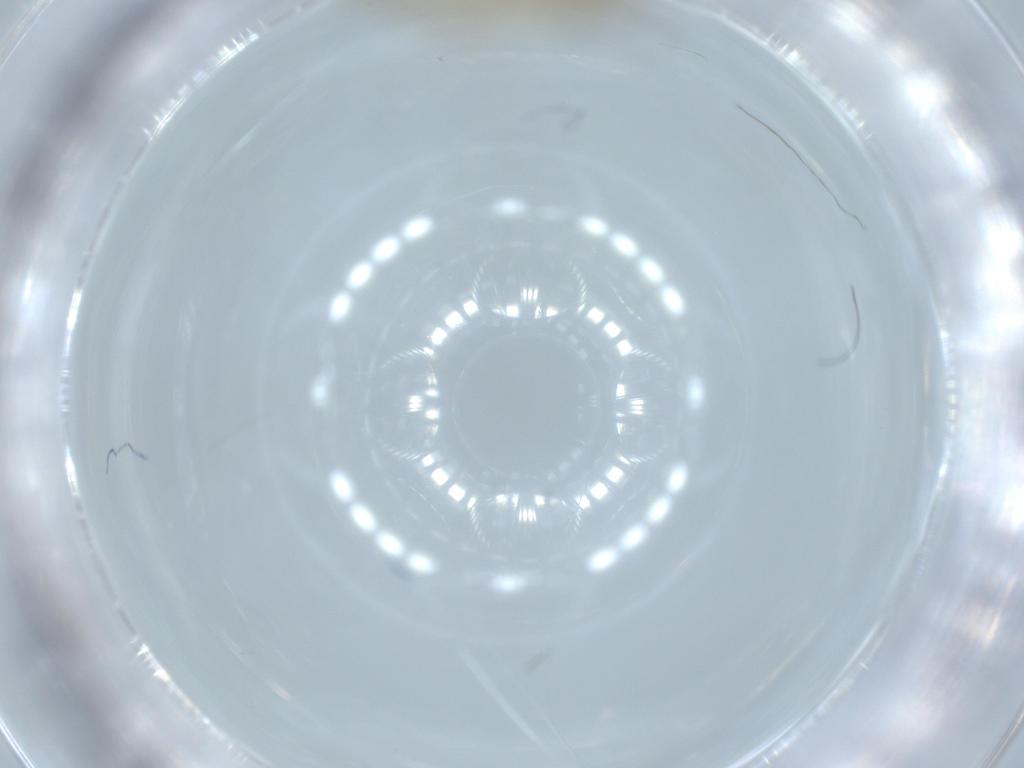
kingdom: Animalia
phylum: Arthropoda
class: Insecta
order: Psocodea
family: Caeciliusidae
